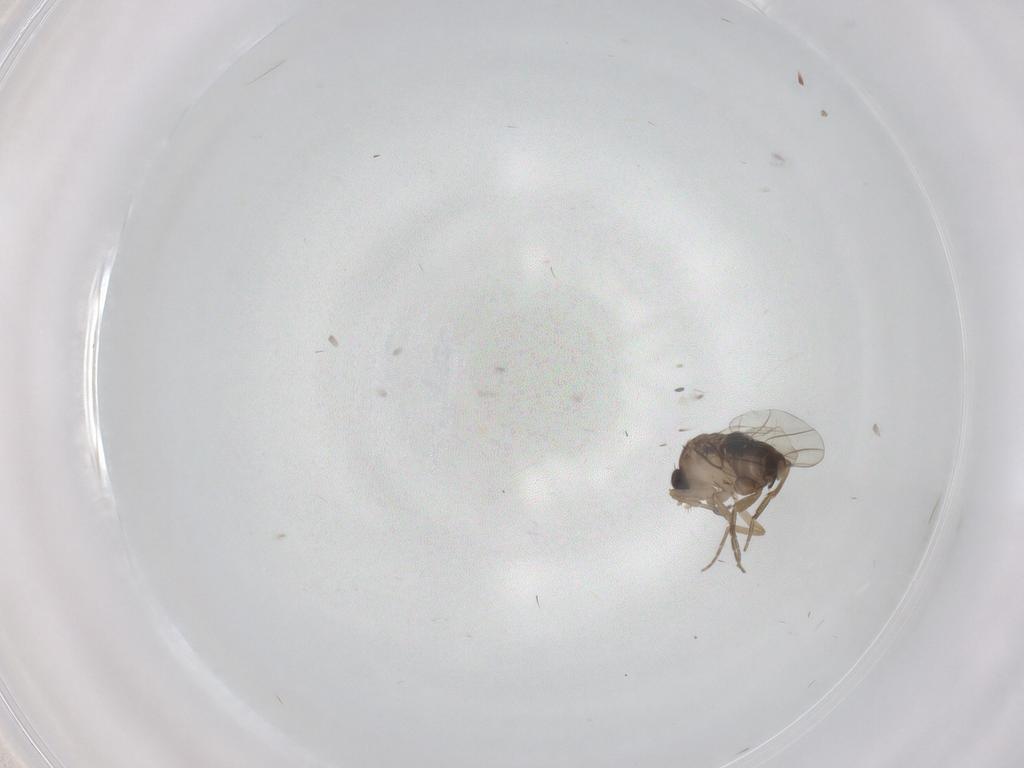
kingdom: Animalia
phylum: Arthropoda
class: Insecta
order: Diptera
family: Phoridae
